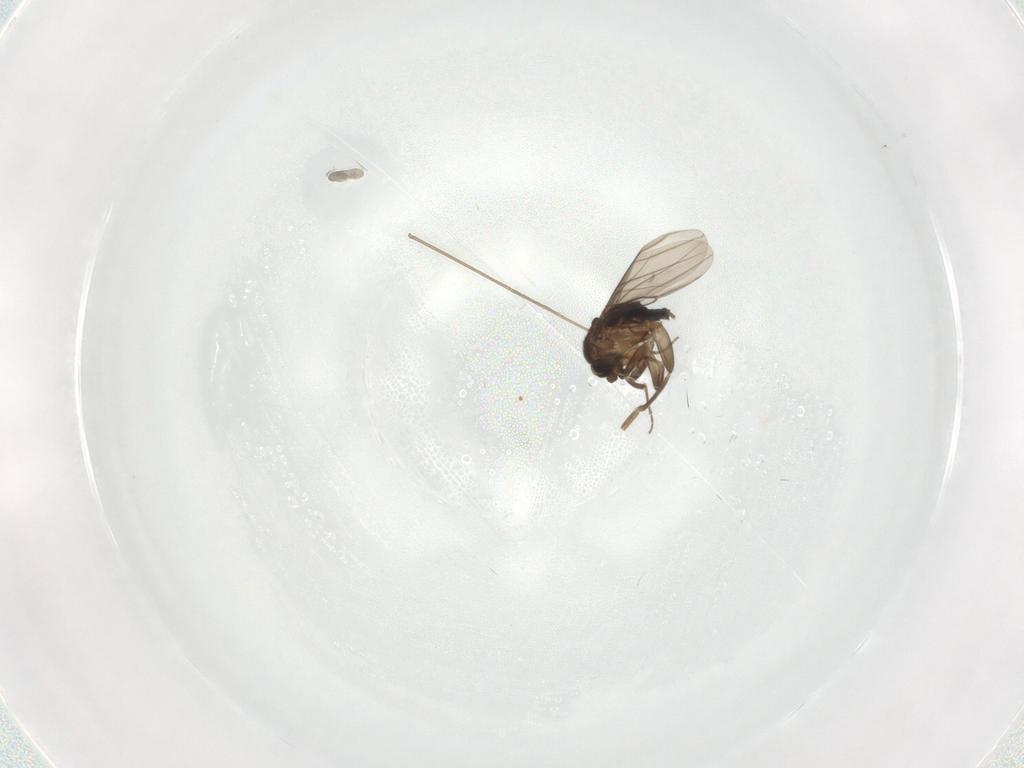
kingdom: Animalia
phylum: Arthropoda
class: Insecta
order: Diptera
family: Sciaridae
